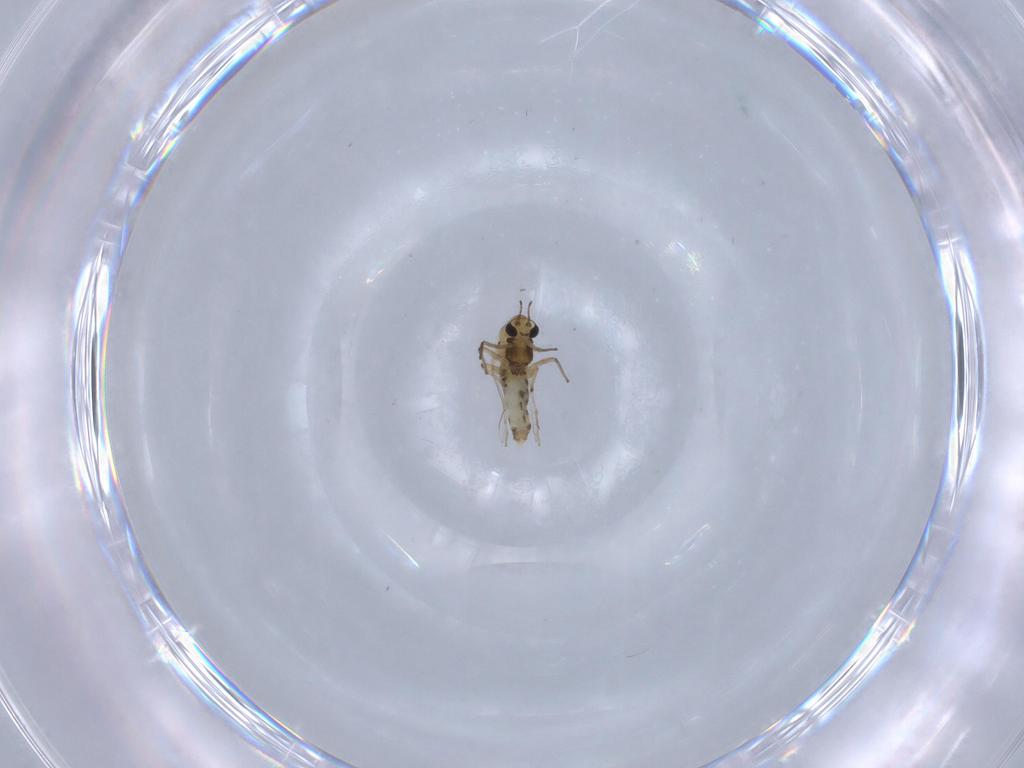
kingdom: Animalia
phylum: Arthropoda
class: Insecta
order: Diptera
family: Chironomidae
